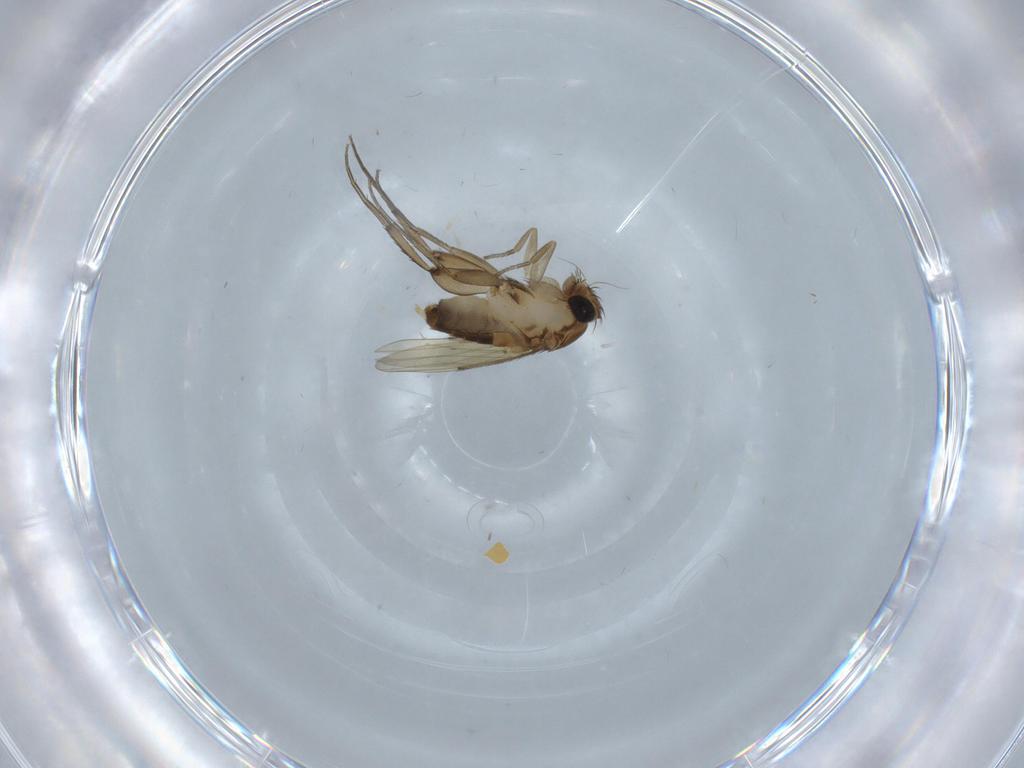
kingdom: Animalia
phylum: Arthropoda
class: Insecta
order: Diptera
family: Phoridae
